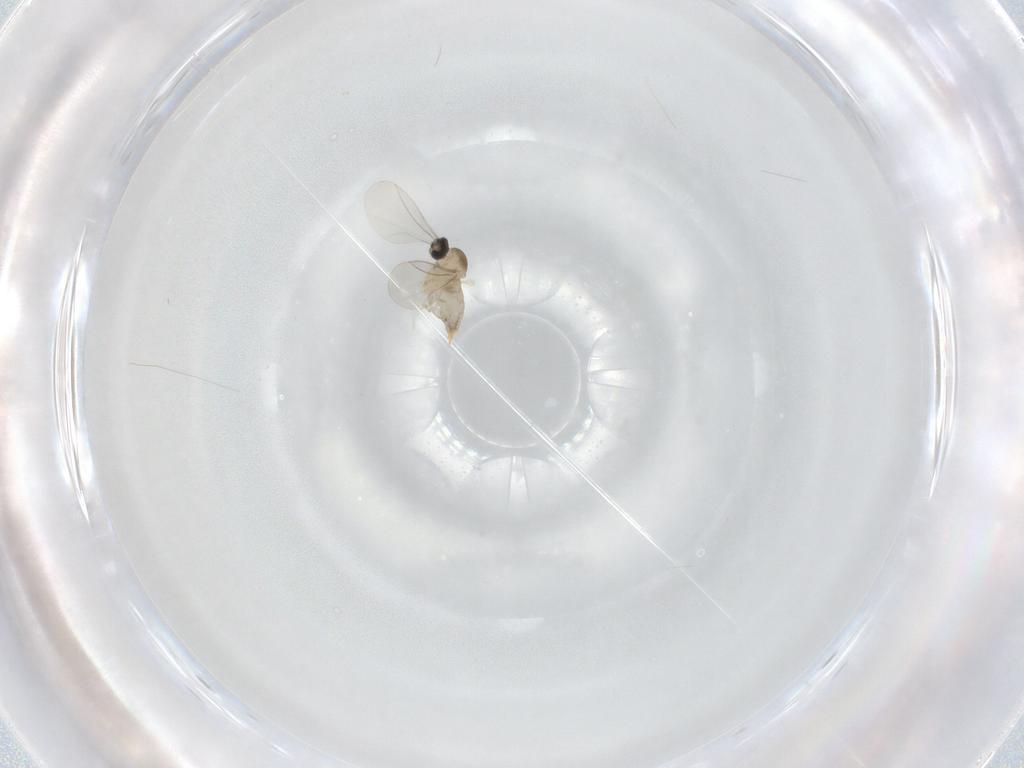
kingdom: Animalia
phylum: Arthropoda
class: Insecta
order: Diptera
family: Cecidomyiidae
